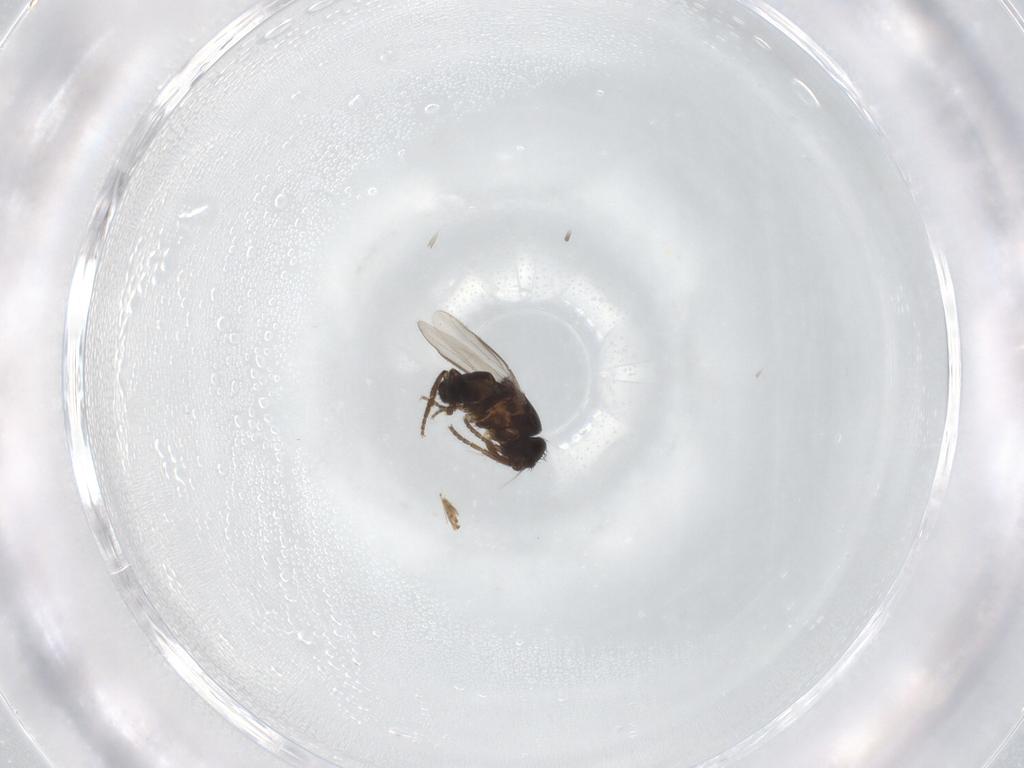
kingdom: Animalia
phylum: Arthropoda
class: Insecta
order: Diptera
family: Sphaeroceridae
